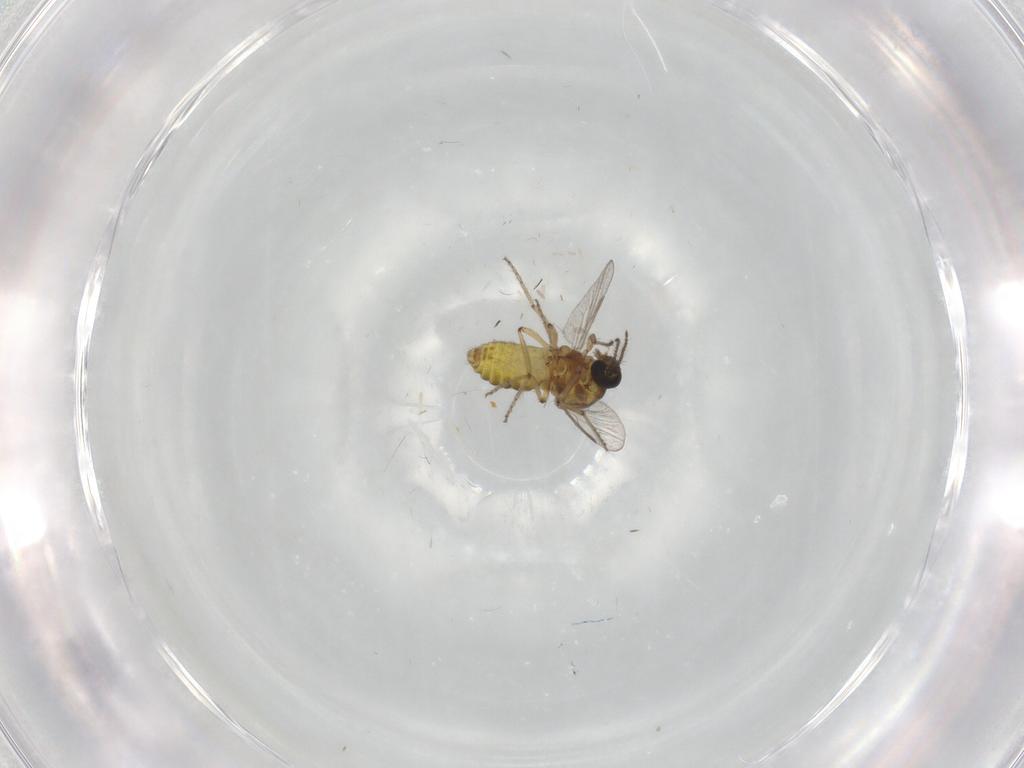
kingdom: Animalia
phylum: Arthropoda
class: Insecta
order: Diptera
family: Ceratopogonidae
